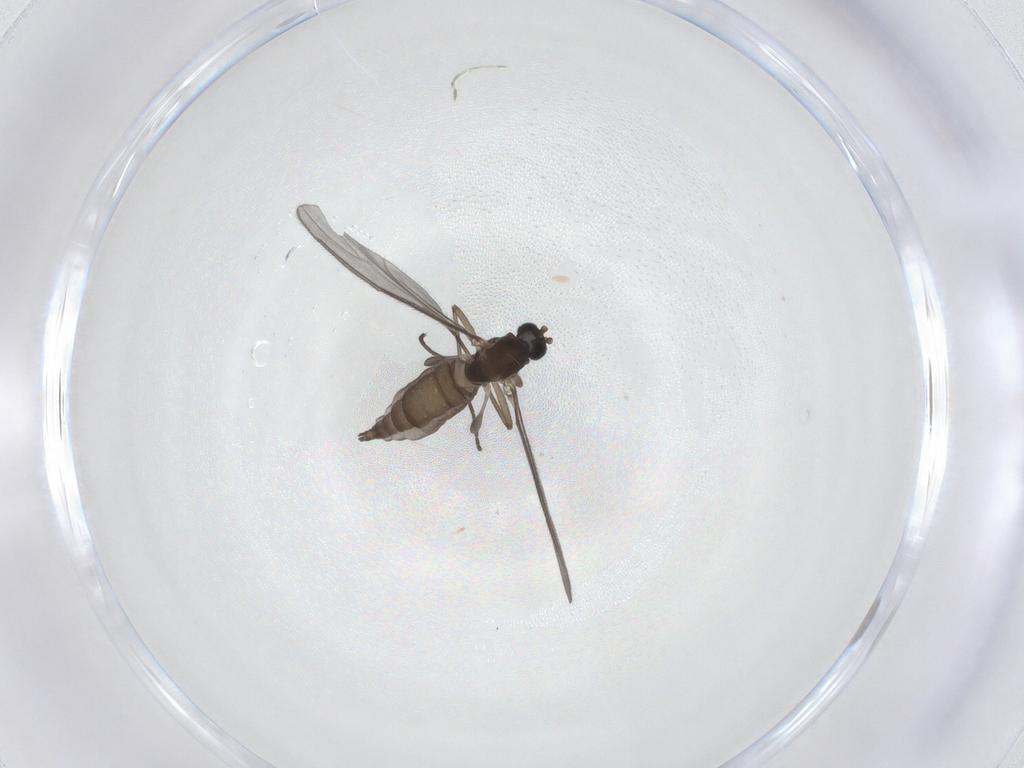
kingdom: Animalia
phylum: Arthropoda
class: Insecta
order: Diptera
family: Sciaridae
